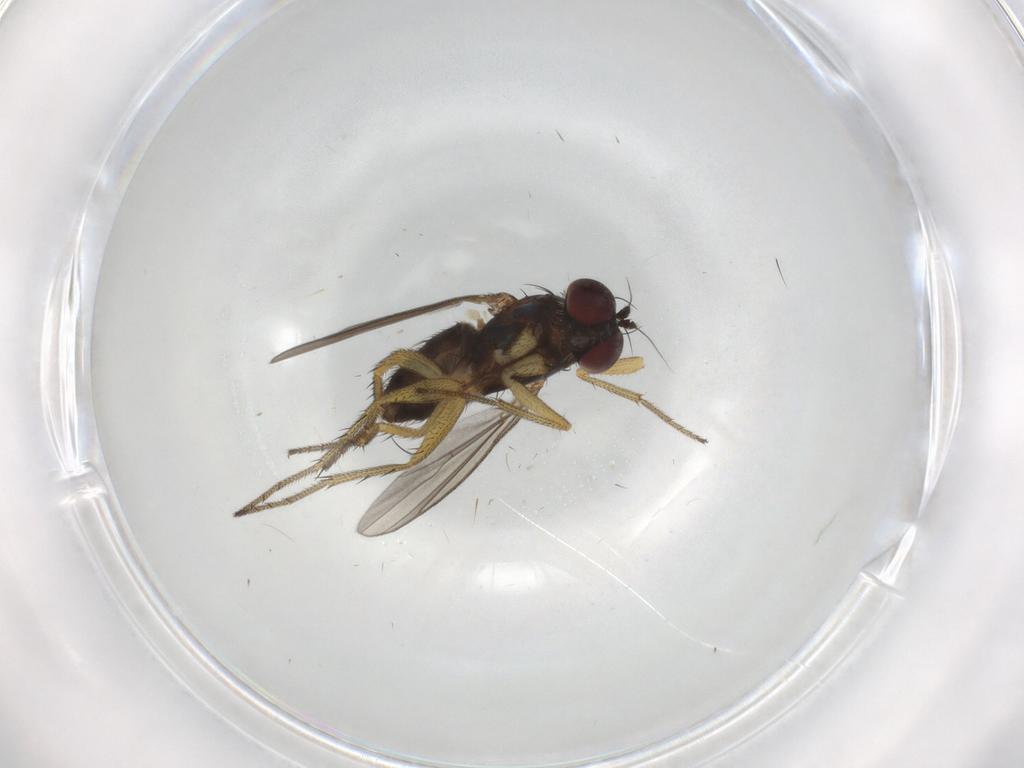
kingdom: Animalia
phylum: Arthropoda
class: Insecta
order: Diptera
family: Dolichopodidae
